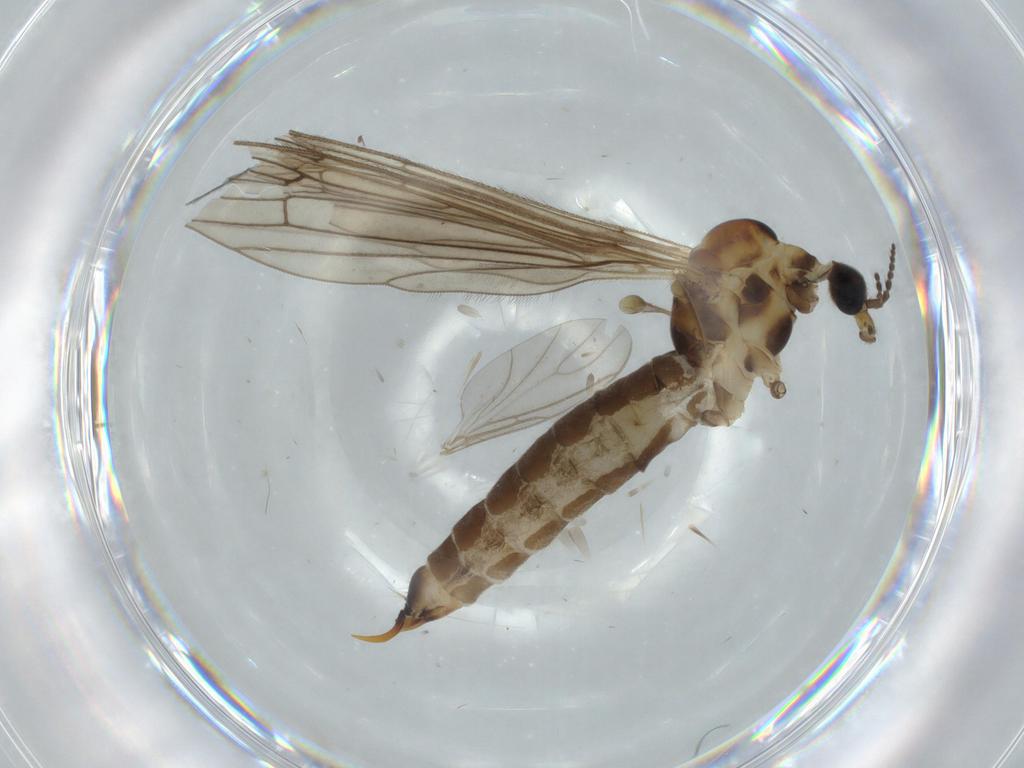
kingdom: Animalia
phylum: Arthropoda
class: Insecta
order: Diptera
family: Limoniidae
